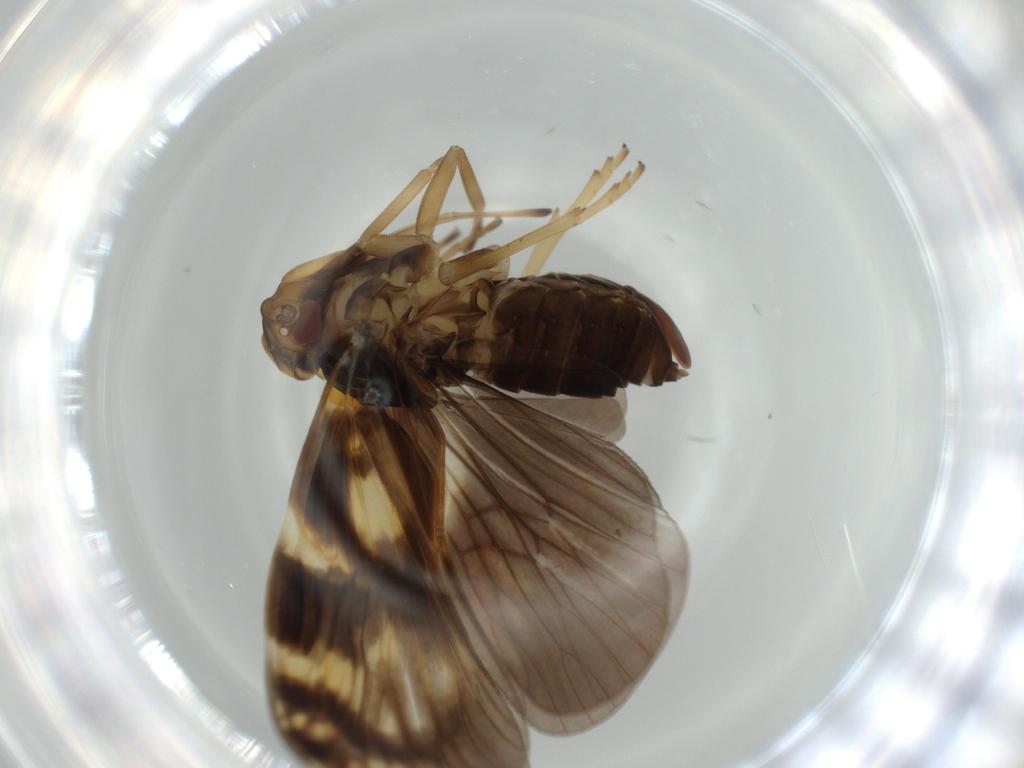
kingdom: Animalia
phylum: Arthropoda
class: Insecta
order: Hemiptera
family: Cixiidae
